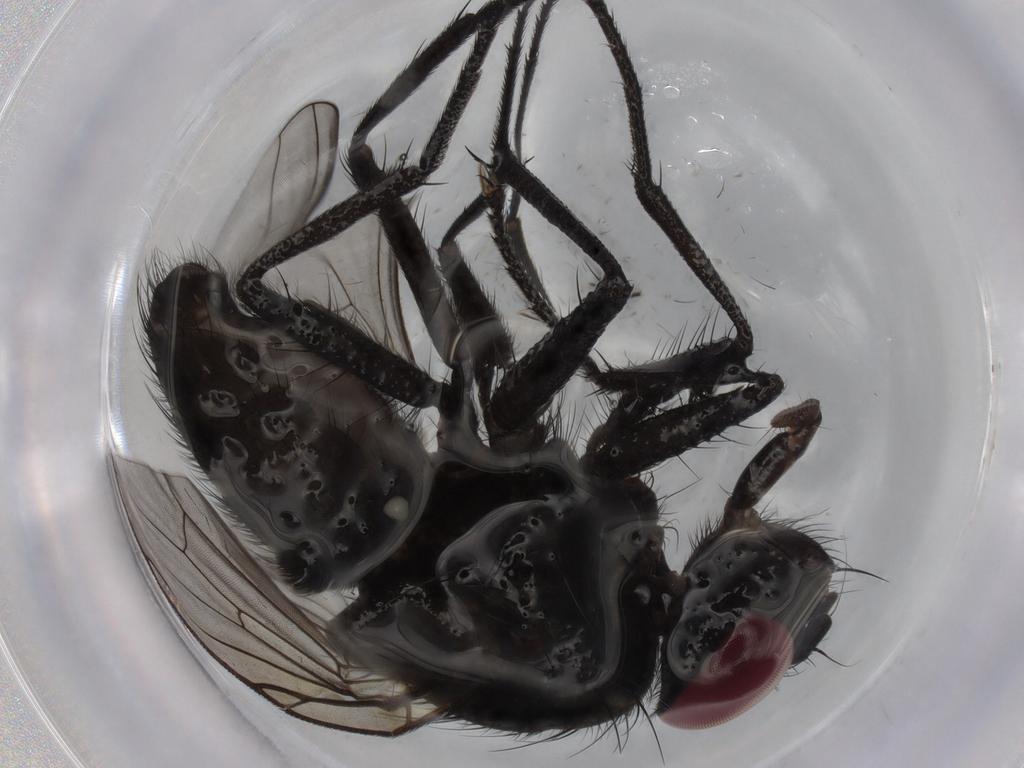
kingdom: Animalia
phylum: Arthropoda
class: Insecta
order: Diptera
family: Muscidae
